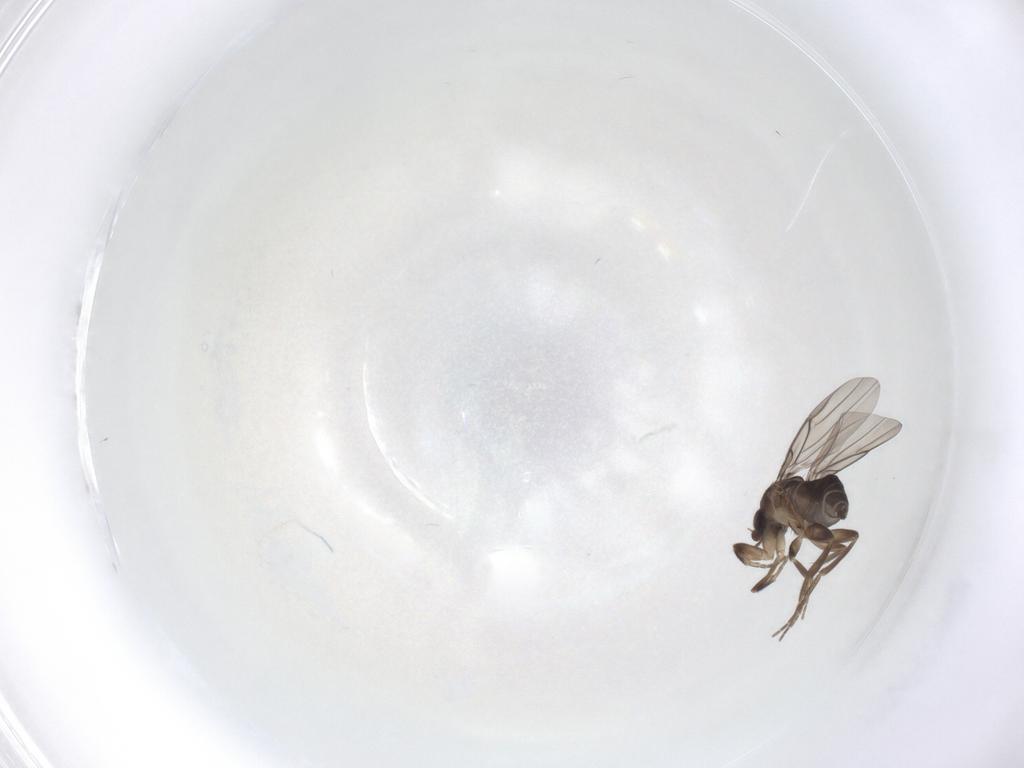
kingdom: Animalia
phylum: Arthropoda
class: Insecta
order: Diptera
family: Phoridae
